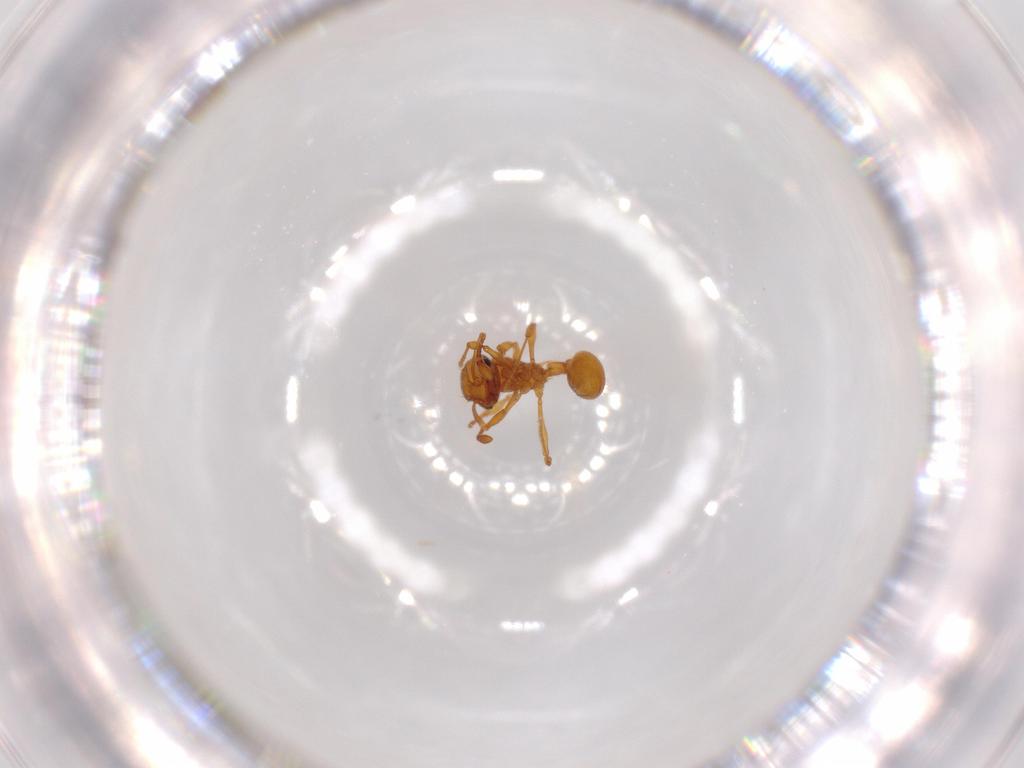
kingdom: Animalia
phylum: Arthropoda
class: Insecta
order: Hymenoptera
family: Formicidae
